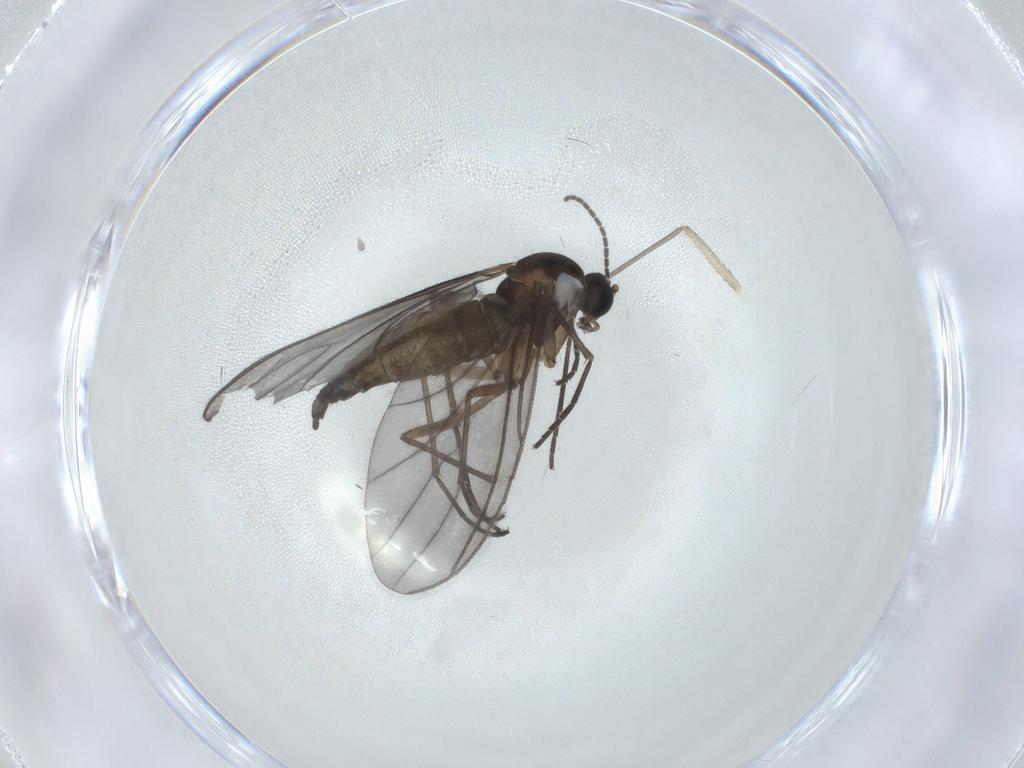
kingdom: Animalia
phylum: Arthropoda
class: Insecta
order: Diptera
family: Sciaridae
